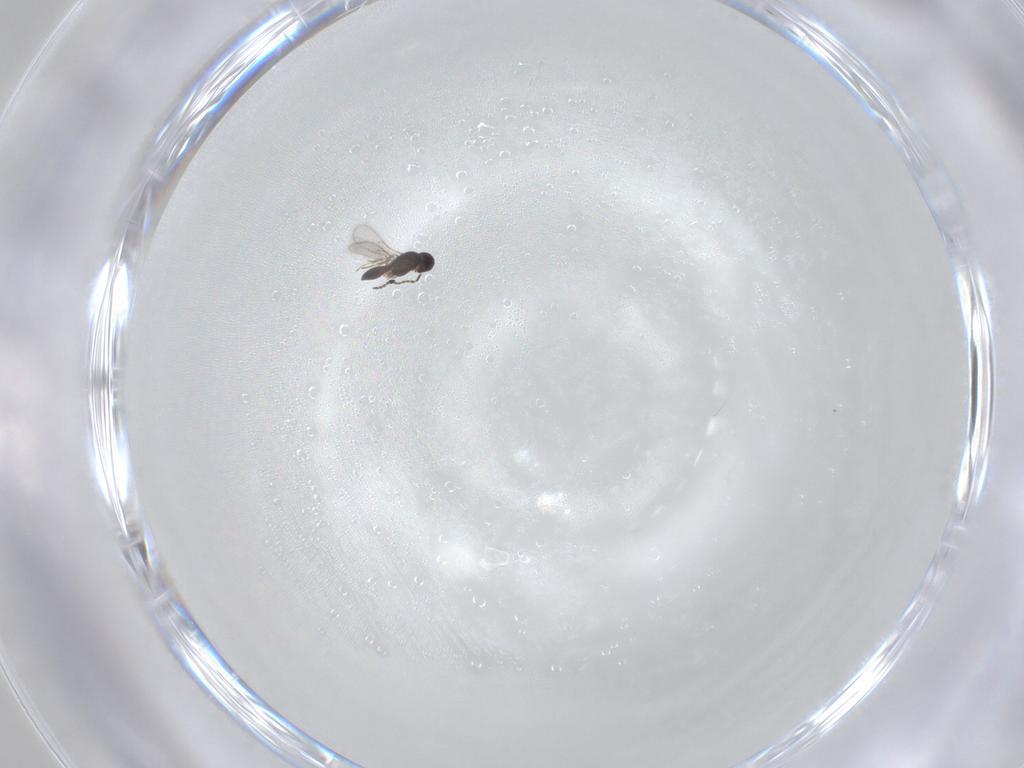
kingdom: Animalia
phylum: Arthropoda
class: Insecta
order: Hymenoptera
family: Scelionidae
